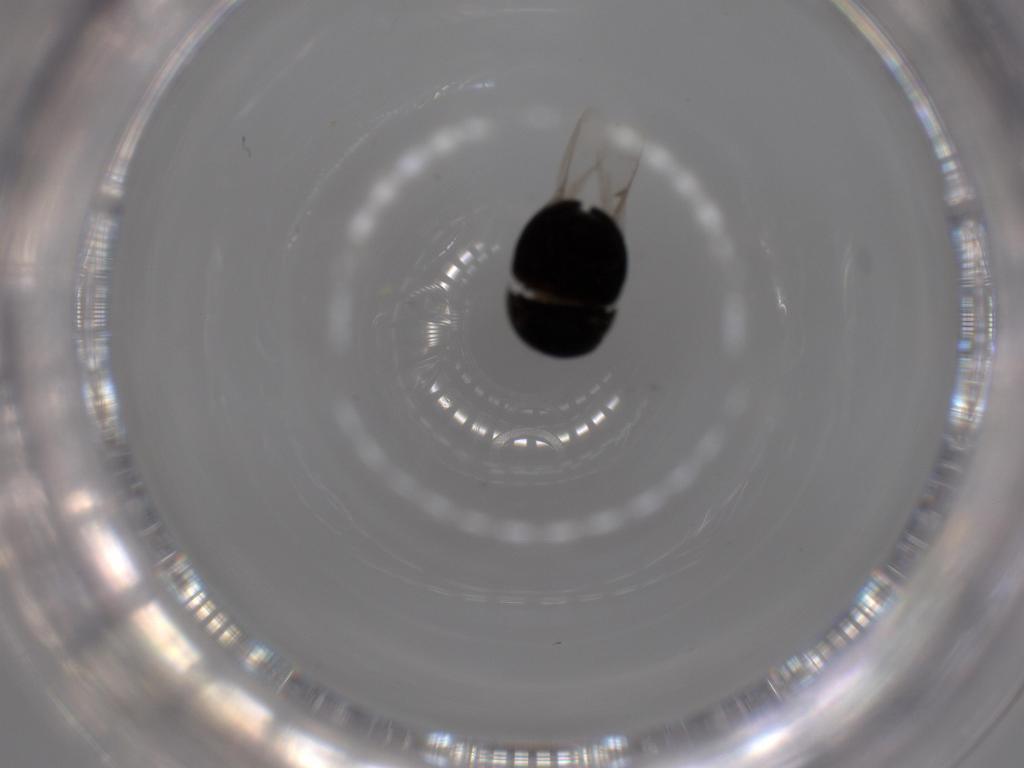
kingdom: Animalia
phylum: Arthropoda
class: Insecta
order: Coleoptera
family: Cybocephalidae
